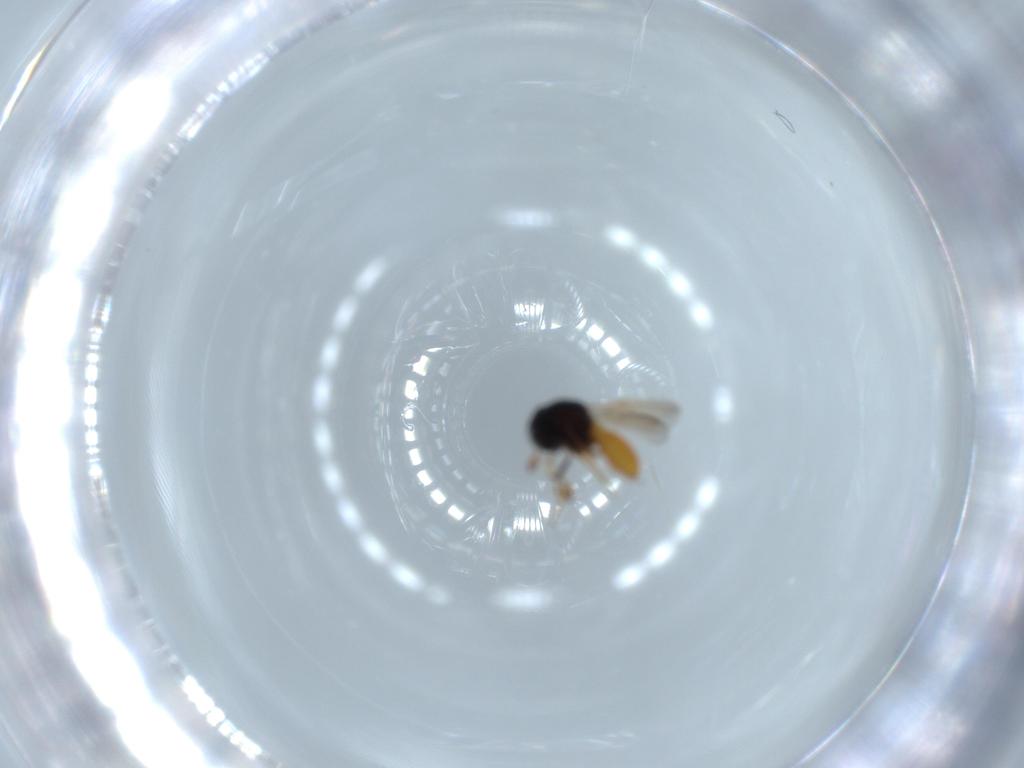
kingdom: Animalia
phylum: Arthropoda
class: Insecta
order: Hymenoptera
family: Scelionidae
